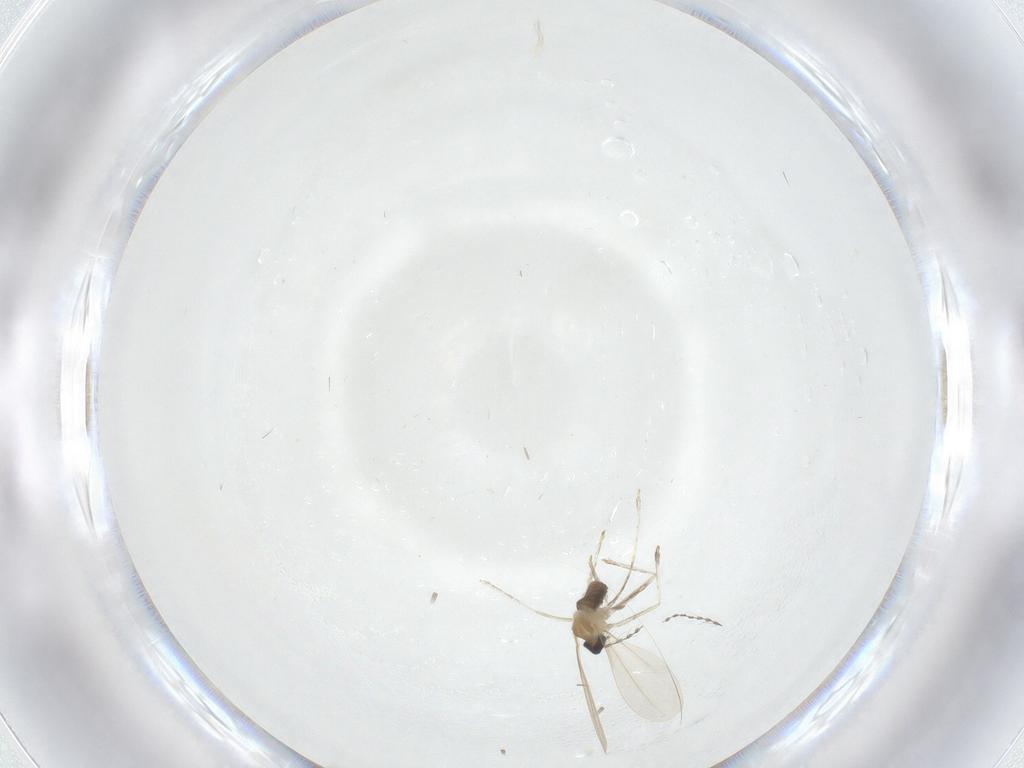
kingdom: Animalia
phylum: Arthropoda
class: Insecta
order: Diptera
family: Cecidomyiidae
